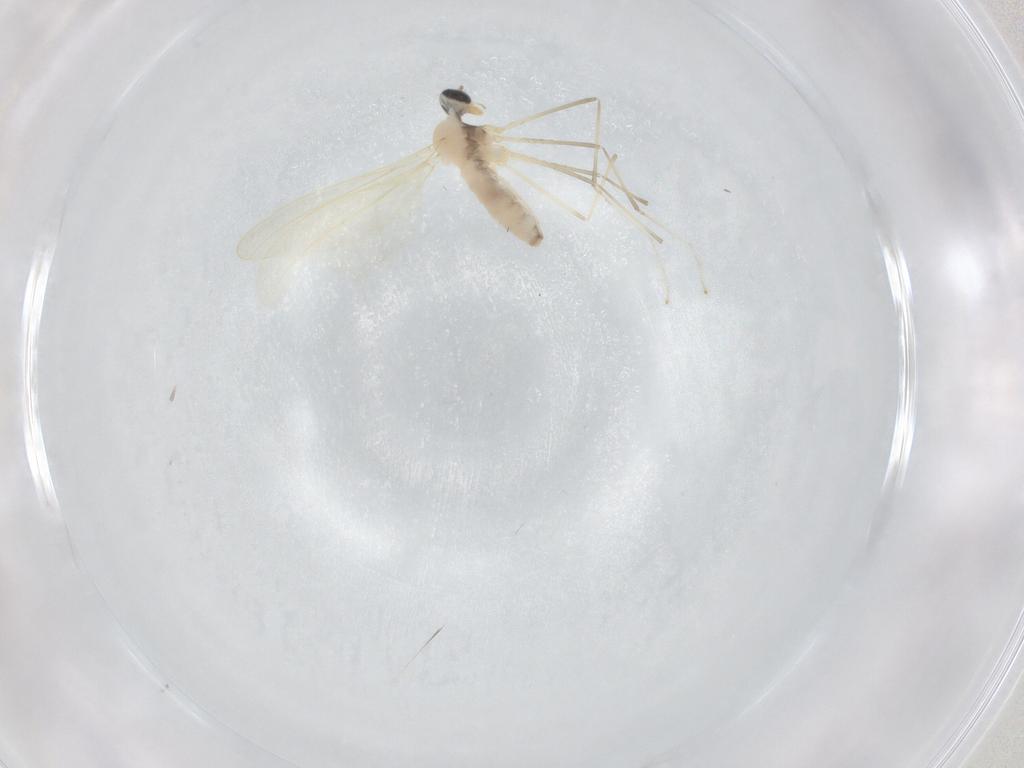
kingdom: Animalia
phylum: Arthropoda
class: Insecta
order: Diptera
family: Cecidomyiidae
